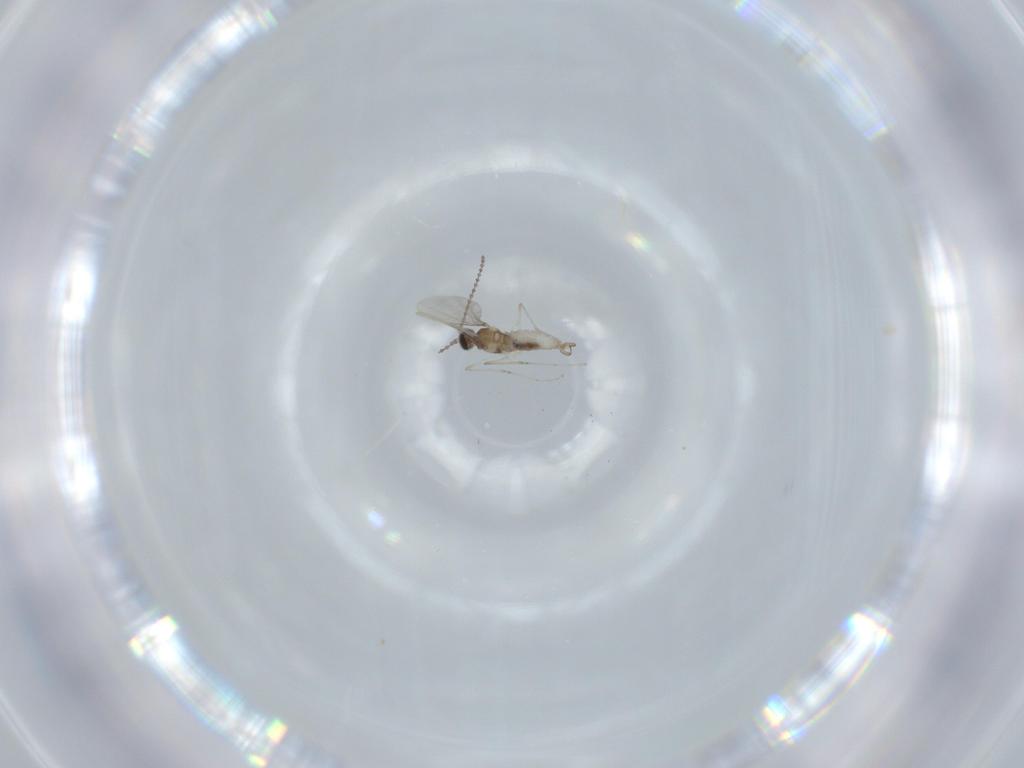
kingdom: Animalia
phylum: Arthropoda
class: Insecta
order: Diptera
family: Cecidomyiidae
